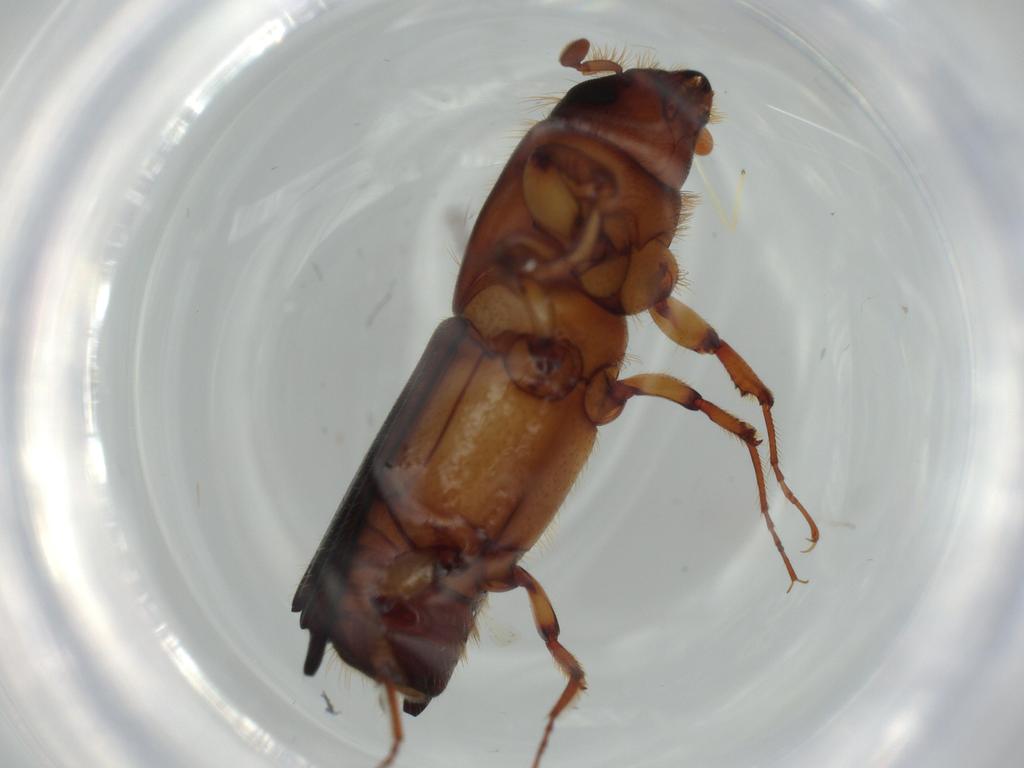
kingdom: Animalia
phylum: Arthropoda
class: Insecta
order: Coleoptera
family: Curculionidae
